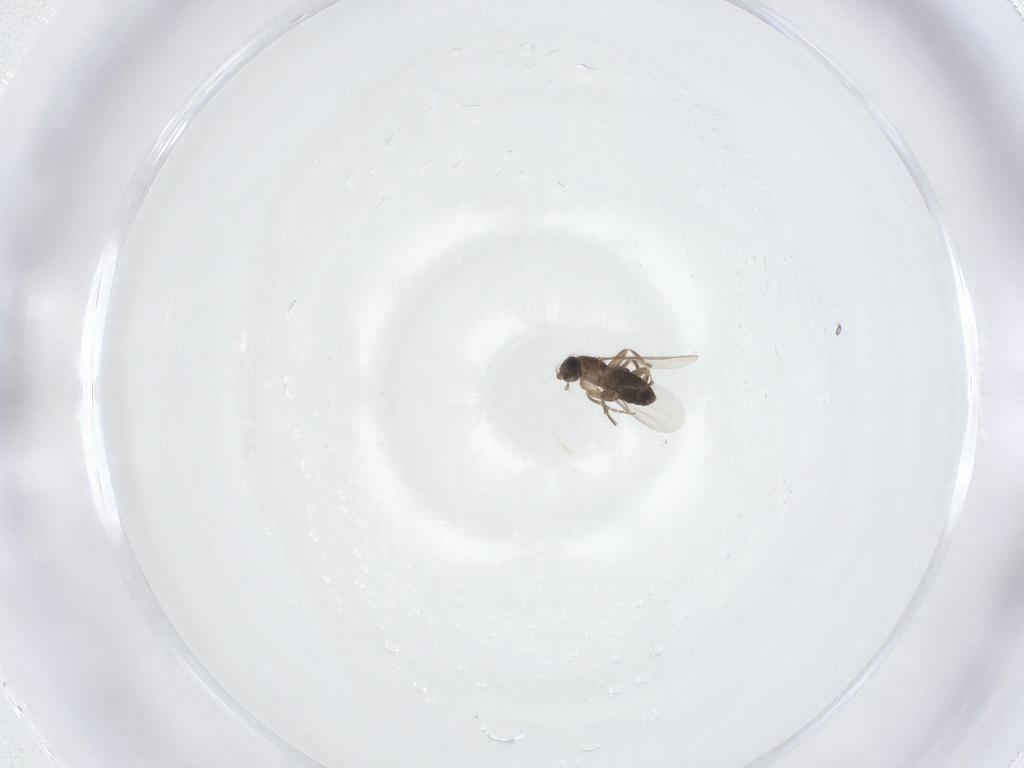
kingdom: Animalia
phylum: Arthropoda
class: Insecta
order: Diptera
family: Phoridae
